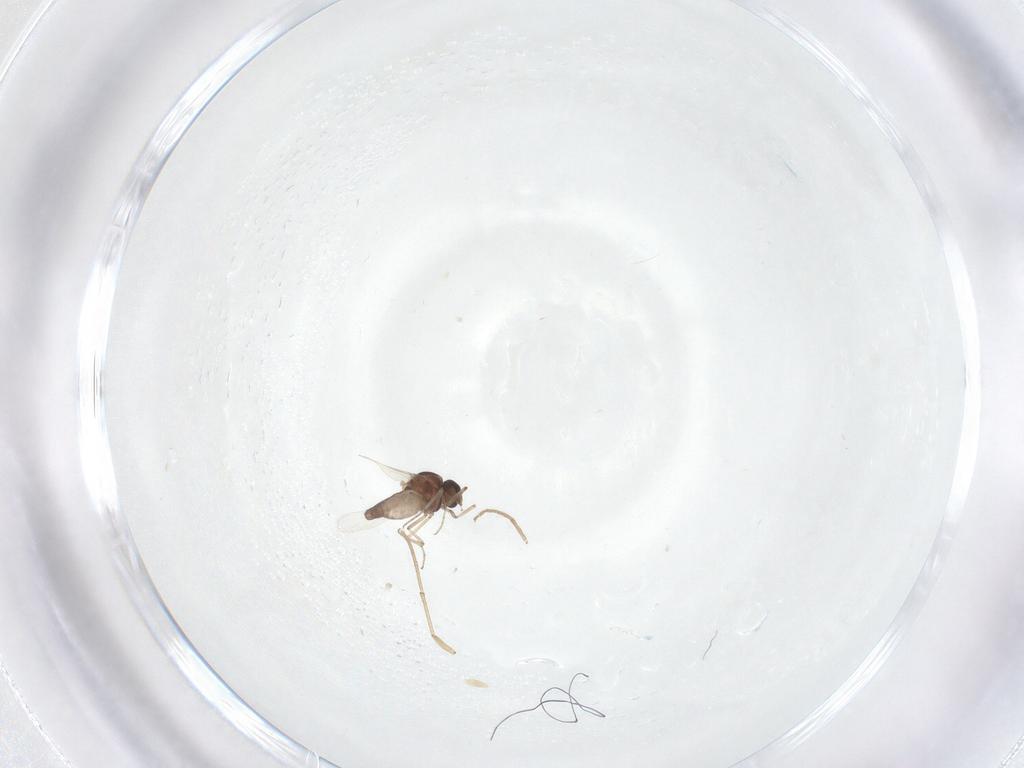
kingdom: Animalia
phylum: Arthropoda
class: Insecta
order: Diptera
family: Ceratopogonidae
